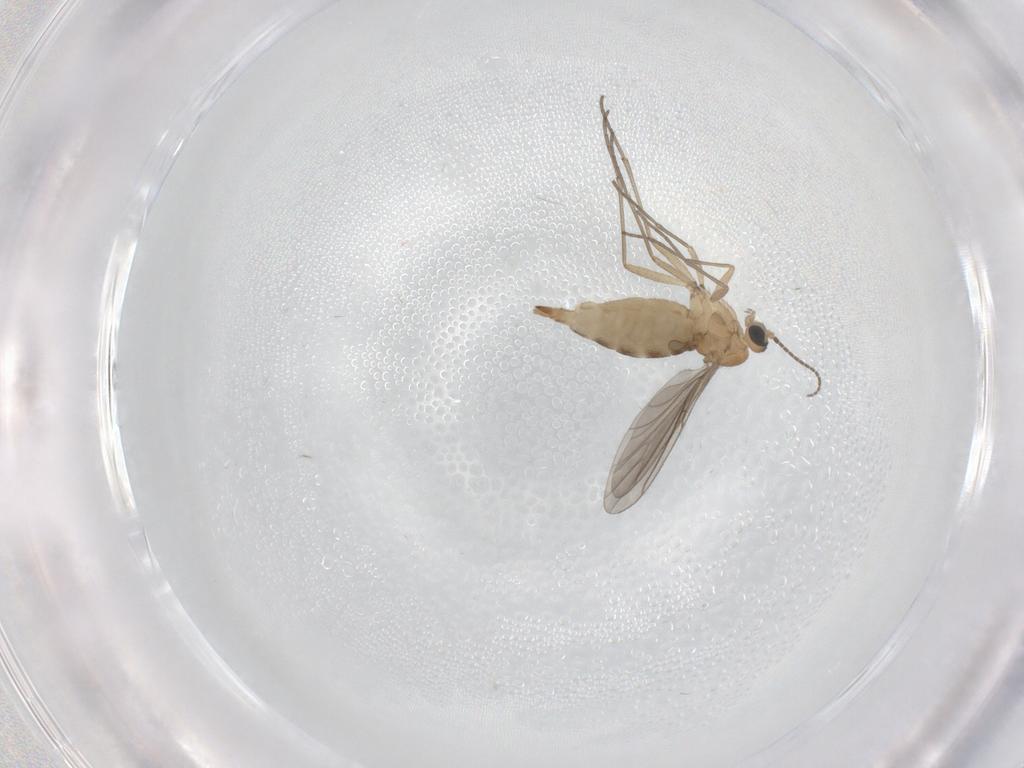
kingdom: Animalia
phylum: Arthropoda
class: Insecta
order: Diptera
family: Sciaridae
